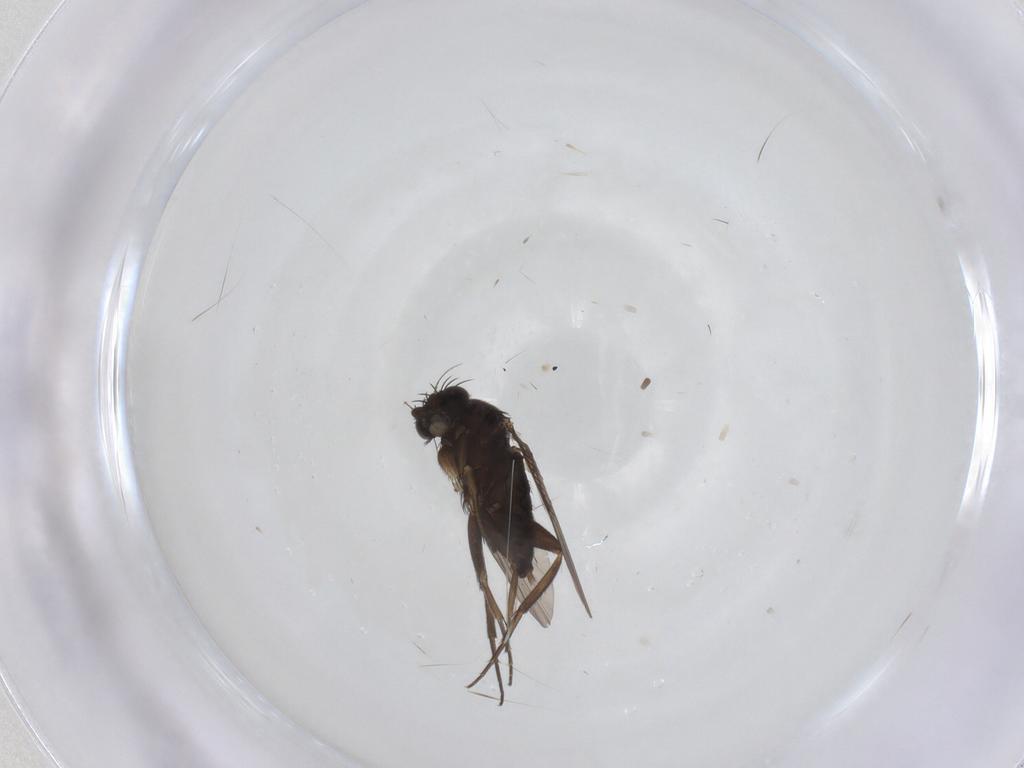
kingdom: Animalia
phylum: Arthropoda
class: Insecta
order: Diptera
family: Phoridae
